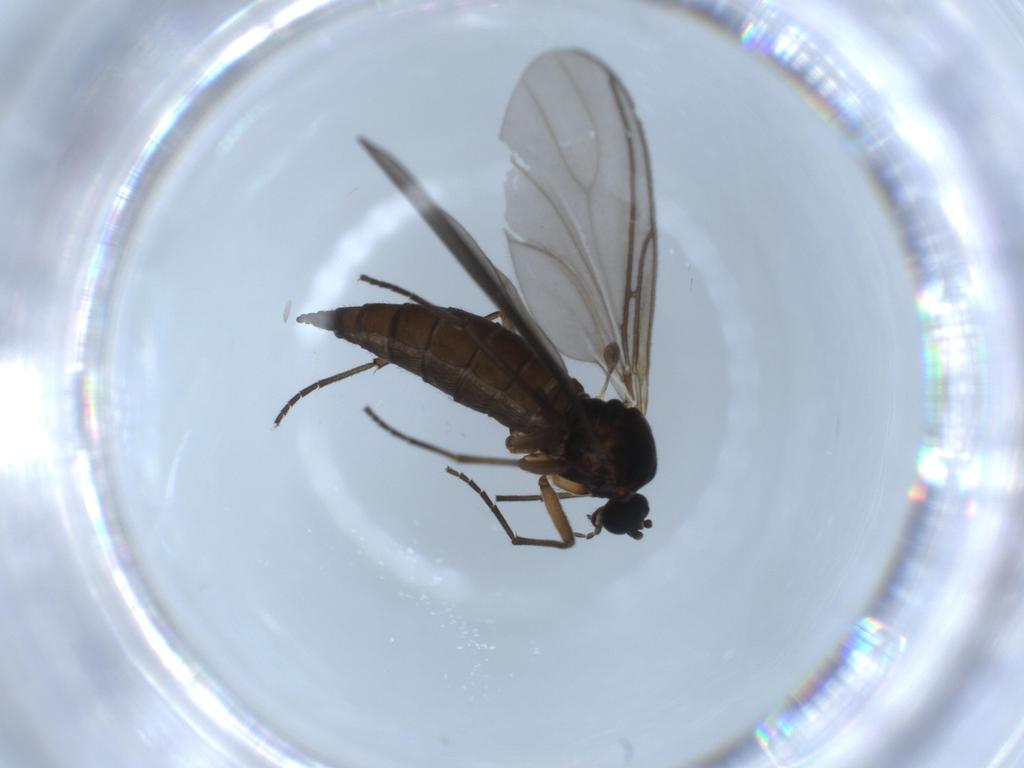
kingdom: Animalia
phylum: Arthropoda
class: Insecta
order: Diptera
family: Sciaridae
